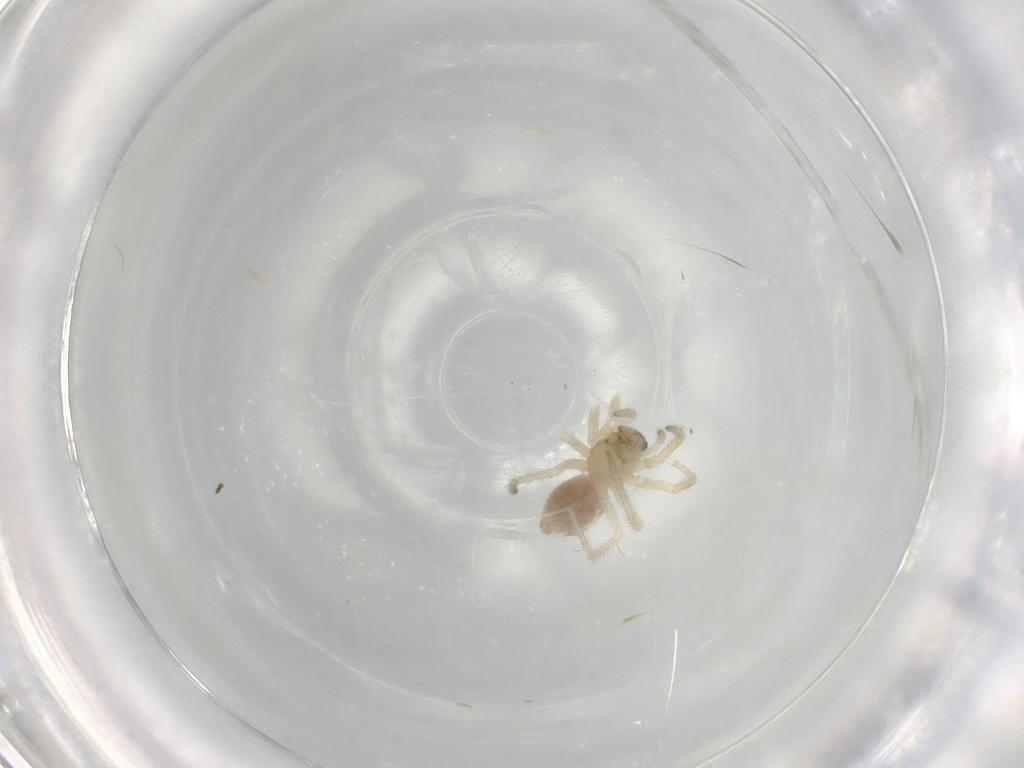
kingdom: Animalia
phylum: Arthropoda
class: Arachnida
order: Araneae
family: Linyphiidae
